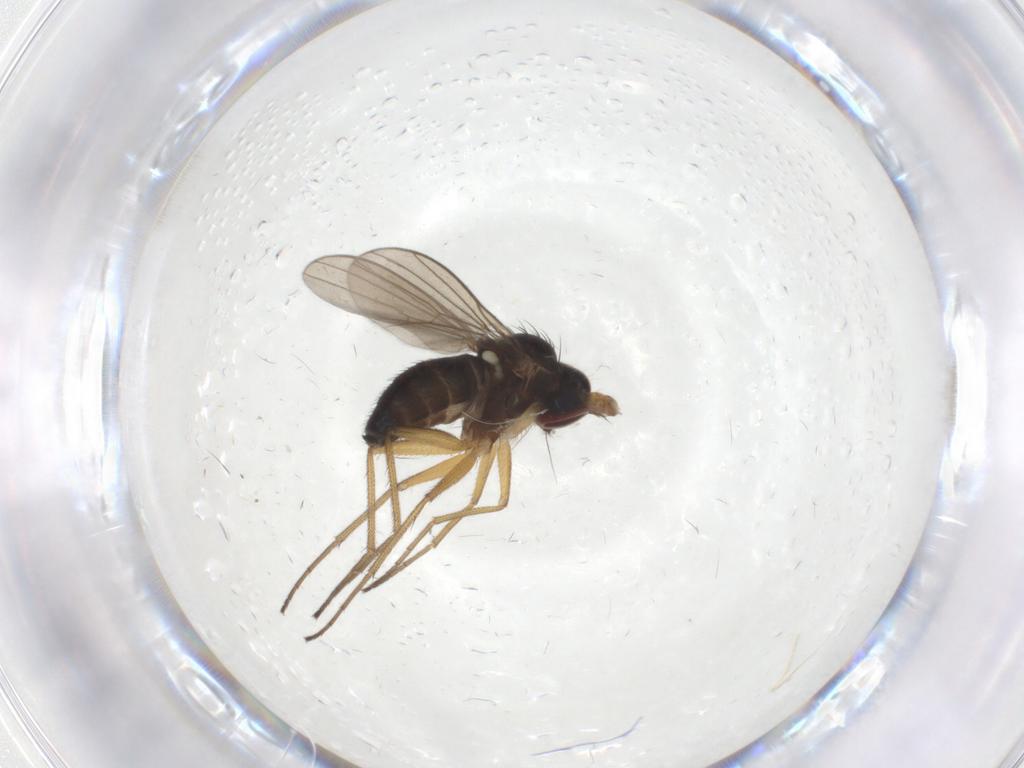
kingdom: Animalia
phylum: Arthropoda
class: Insecta
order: Diptera
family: Dolichopodidae
